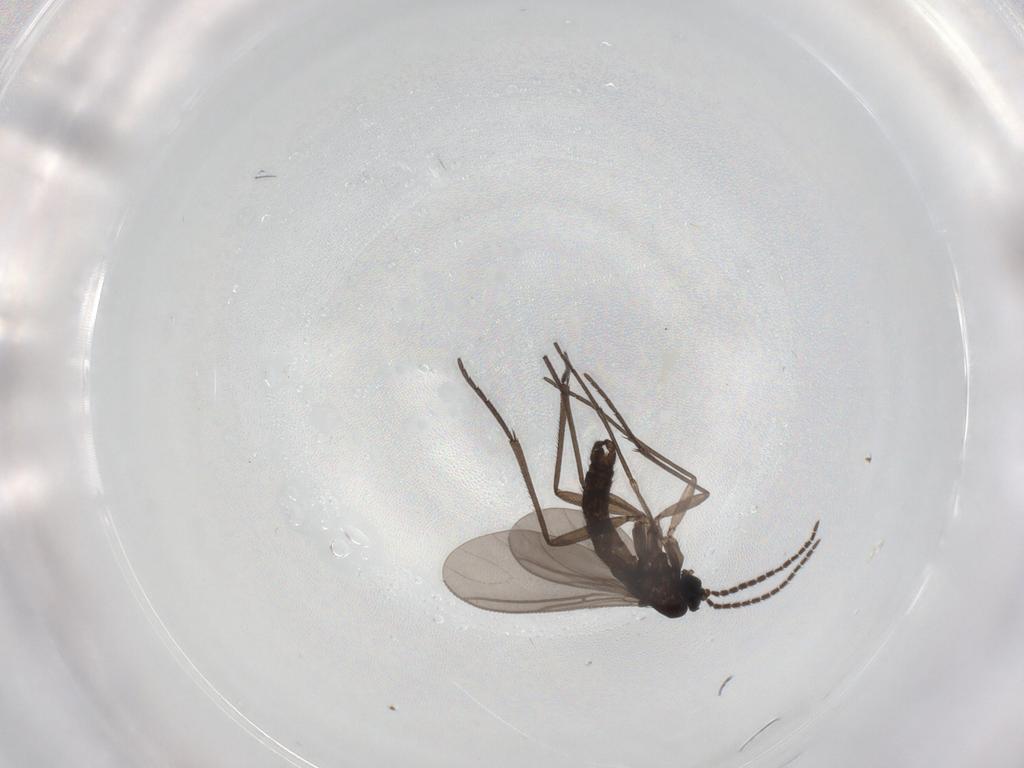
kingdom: Animalia
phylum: Arthropoda
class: Insecta
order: Diptera
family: Sciaridae
